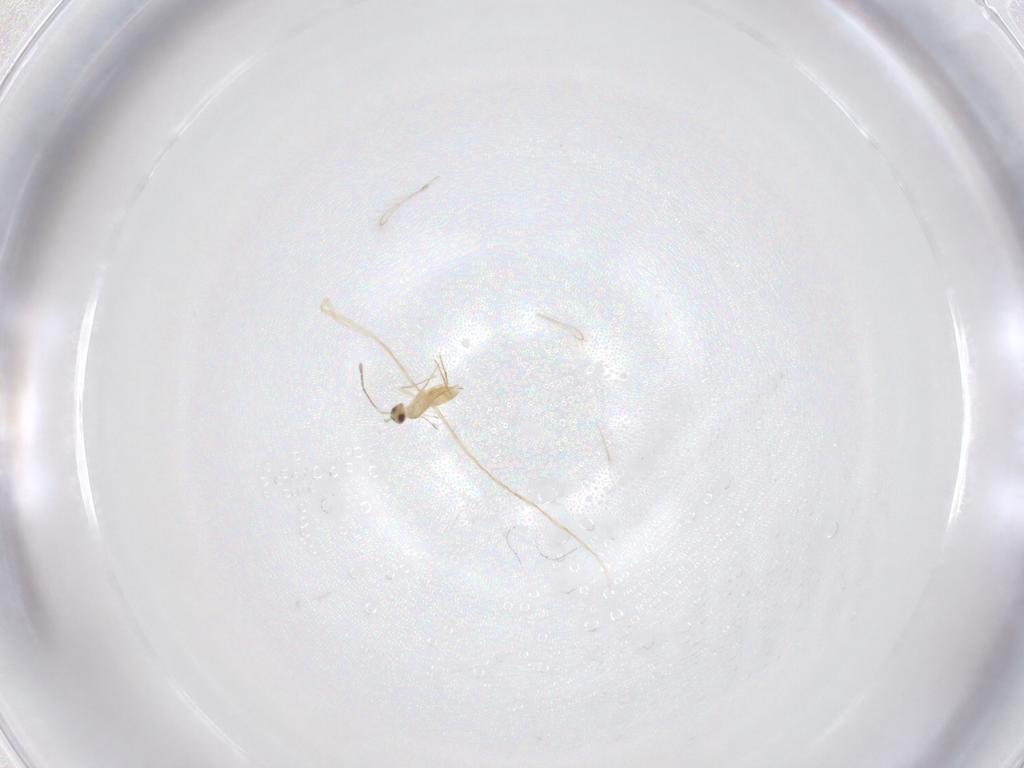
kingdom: Animalia
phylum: Arthropoda
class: Insecta
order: Hymenoptera
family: Mymaridae
